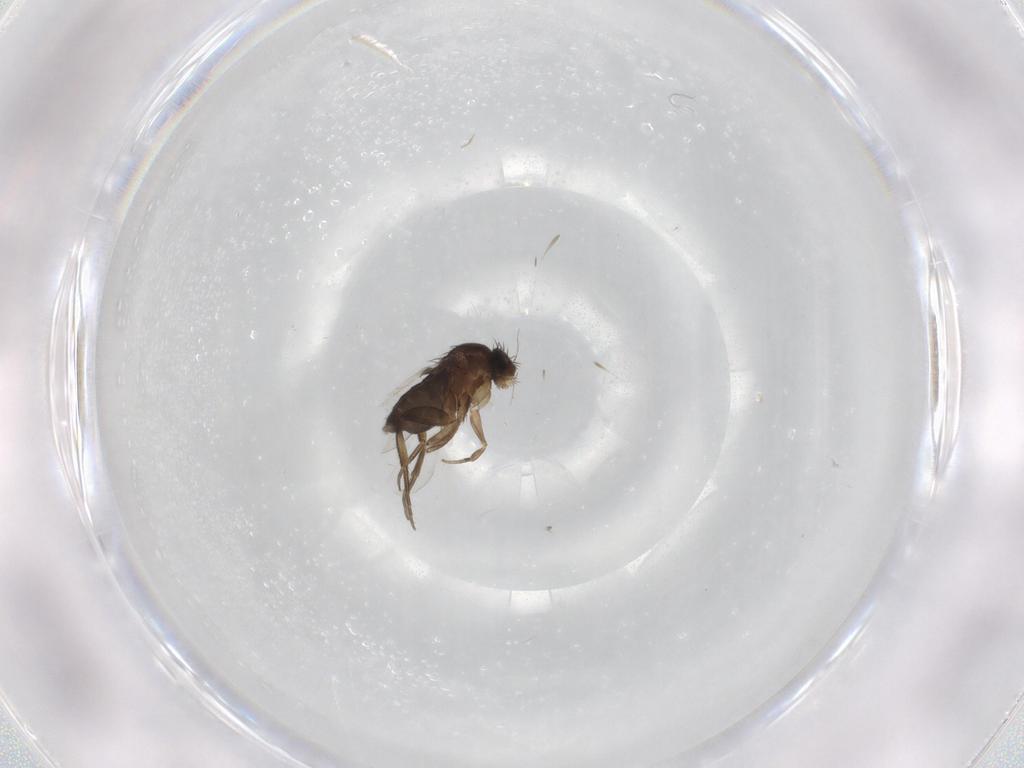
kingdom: Animalia
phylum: Arthropoda
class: Insecta
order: Diptera
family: Phoridae
